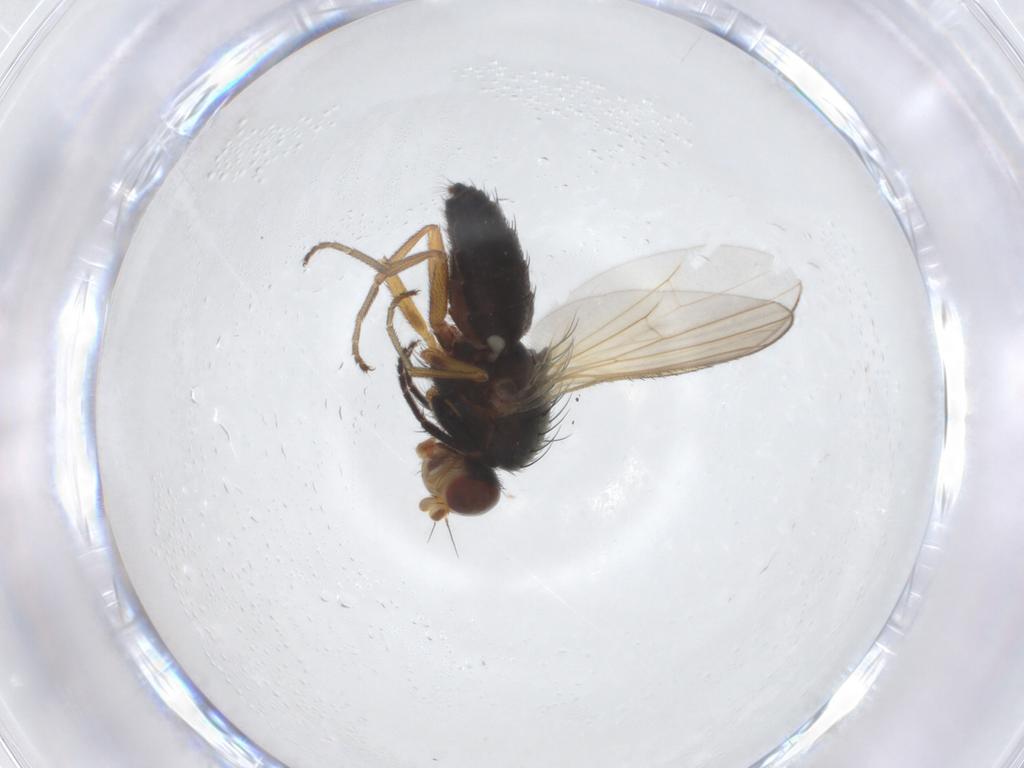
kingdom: Animalia
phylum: Arthropoda
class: Insecta
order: Diptera
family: Heleomyzidae
